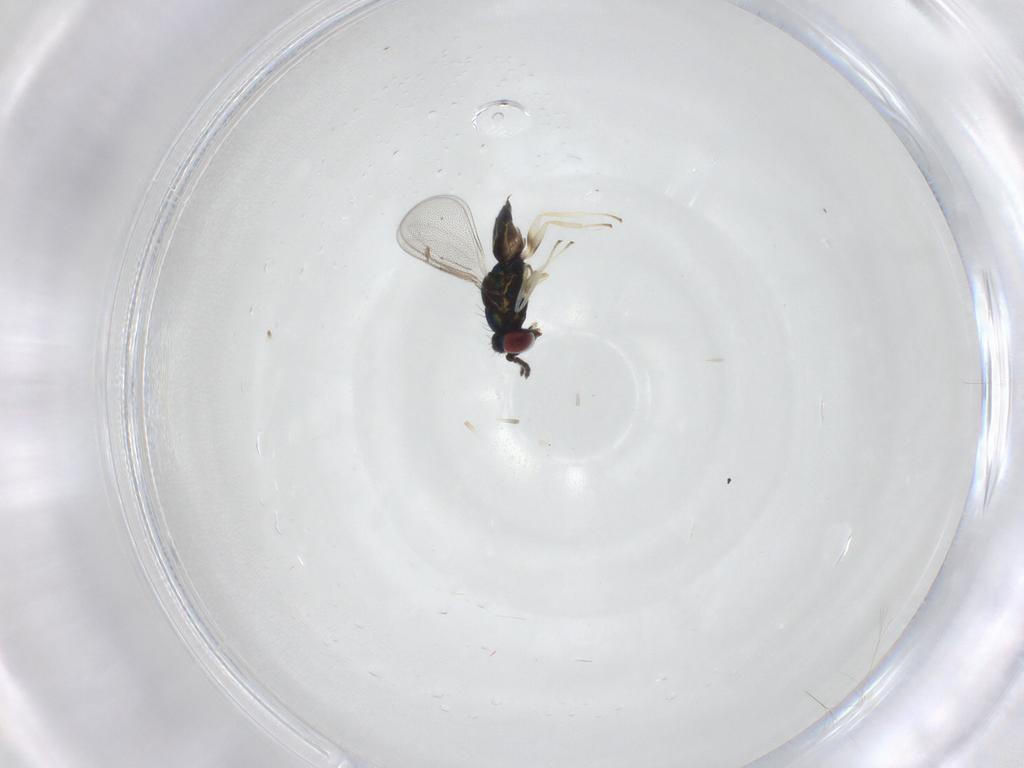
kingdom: Animalia
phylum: Arthropoda
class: Insecta
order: Hymenoptera
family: Eulophidae
